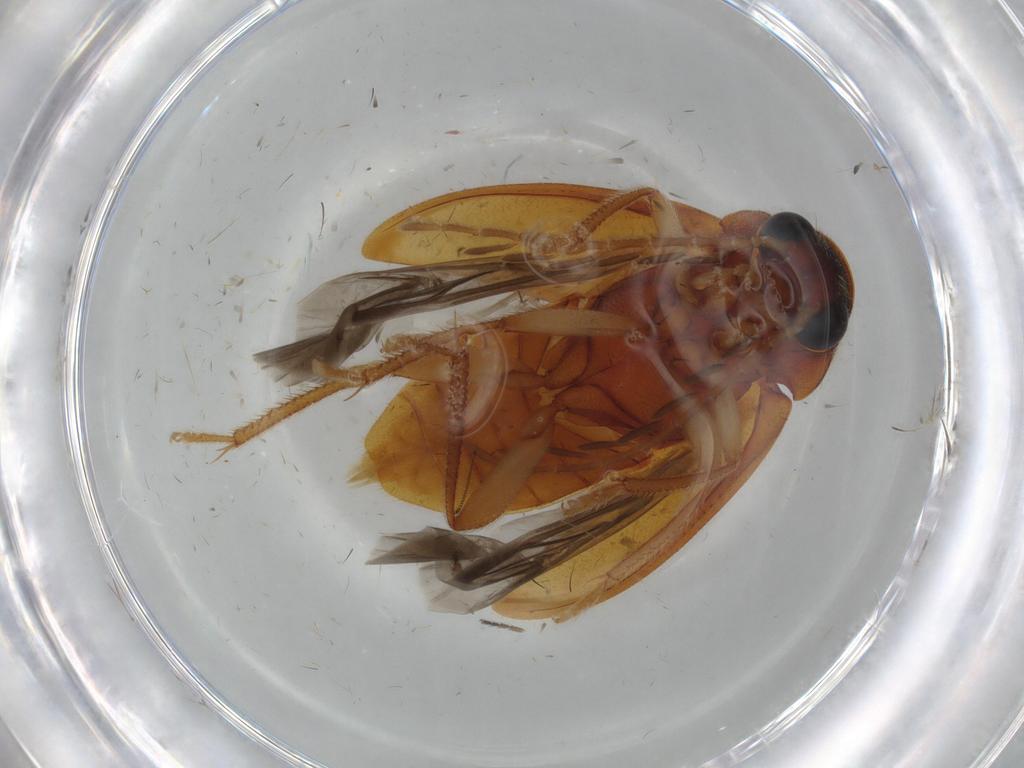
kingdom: Animalia
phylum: Arthropoda
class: Insecta
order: Coleoptera
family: Ptilodactylidae
